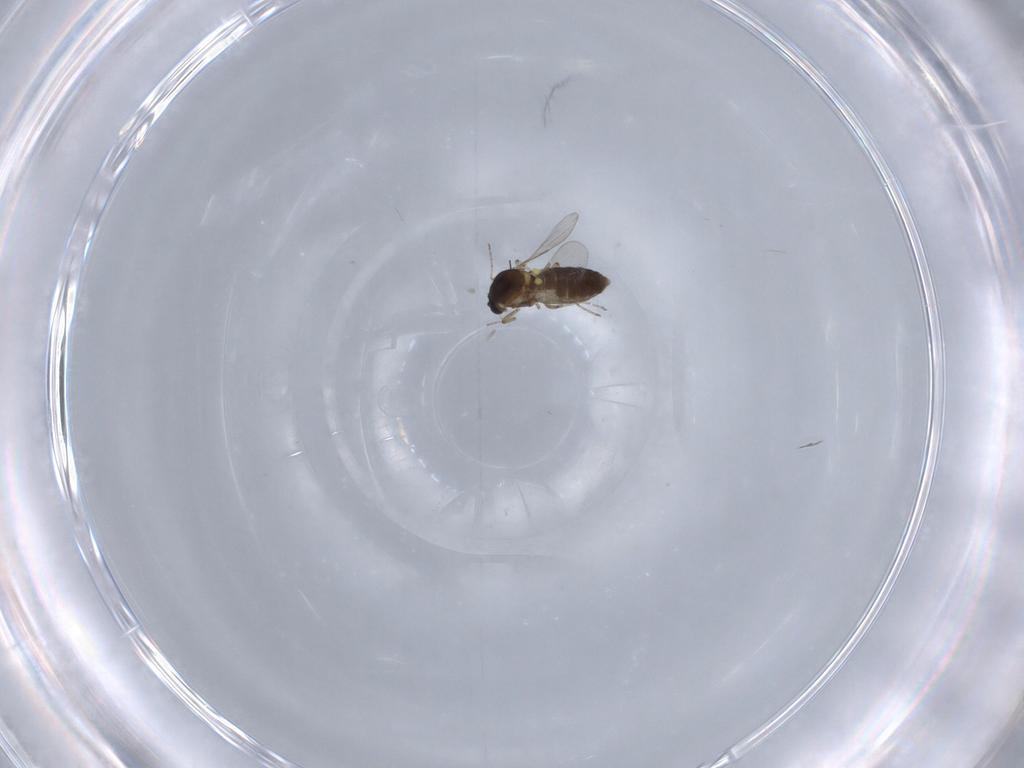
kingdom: Animalia
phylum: Arthropoda
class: Insecta
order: Diptera
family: Ceratopogonidae
